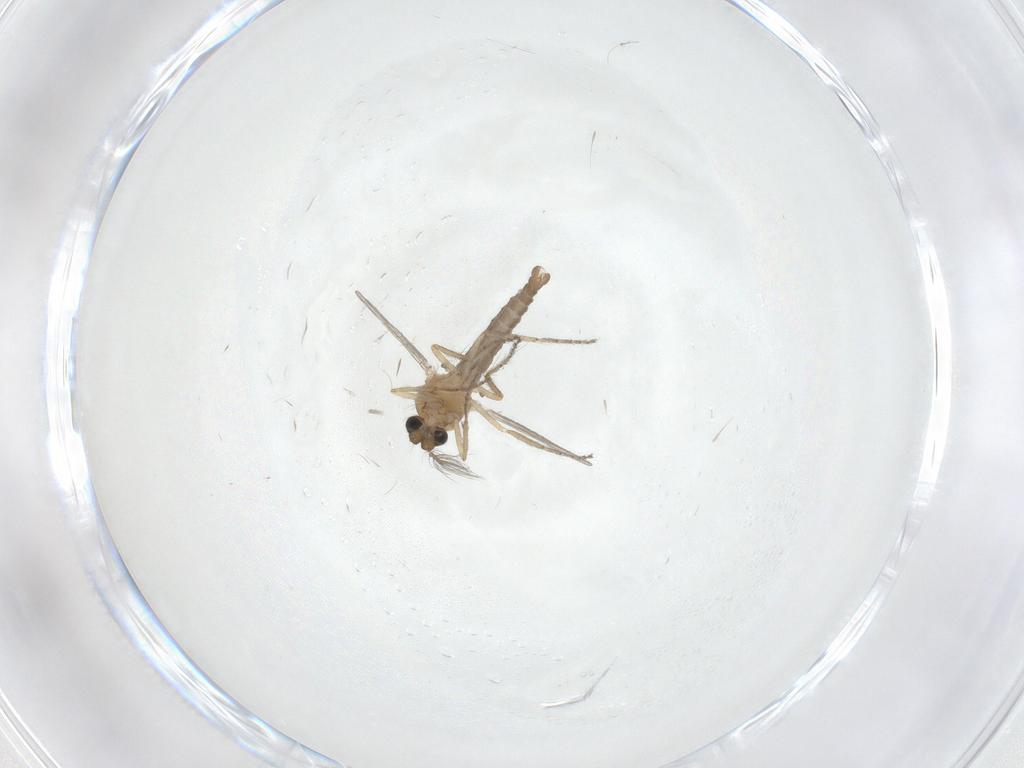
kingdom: Animalia
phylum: Arthropoda
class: Insecta
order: Diptera
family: Ceratopogonidae
